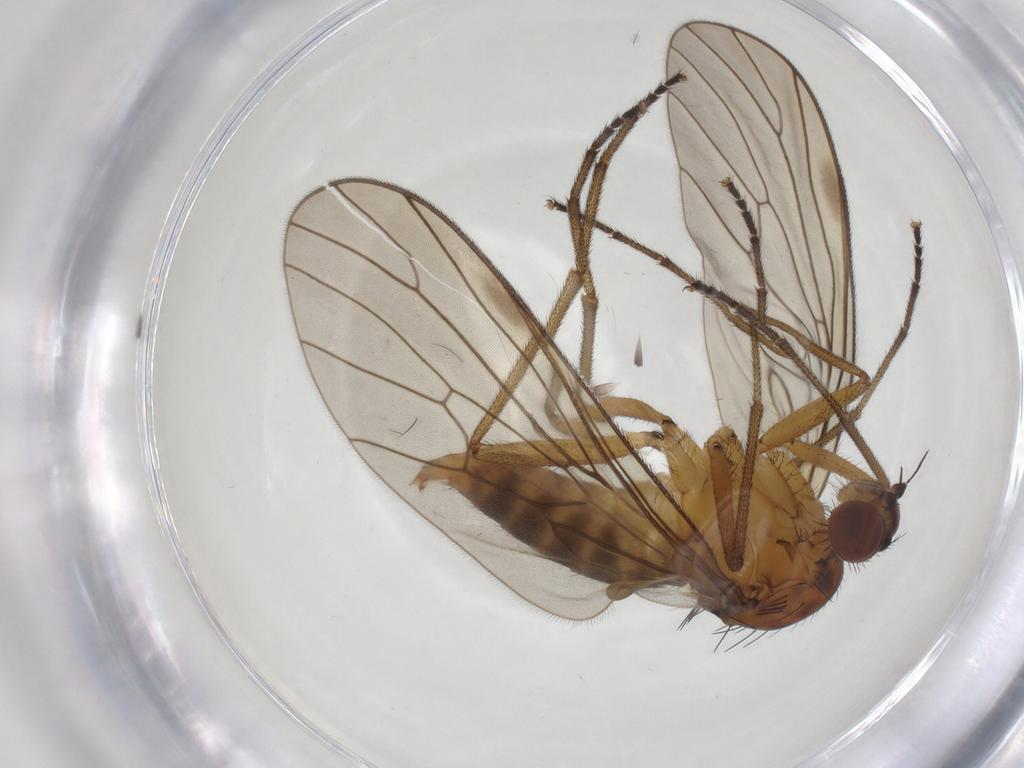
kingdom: Animalia
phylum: Arthropoda
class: Insecta
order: Diptera
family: Brachystomatidae
